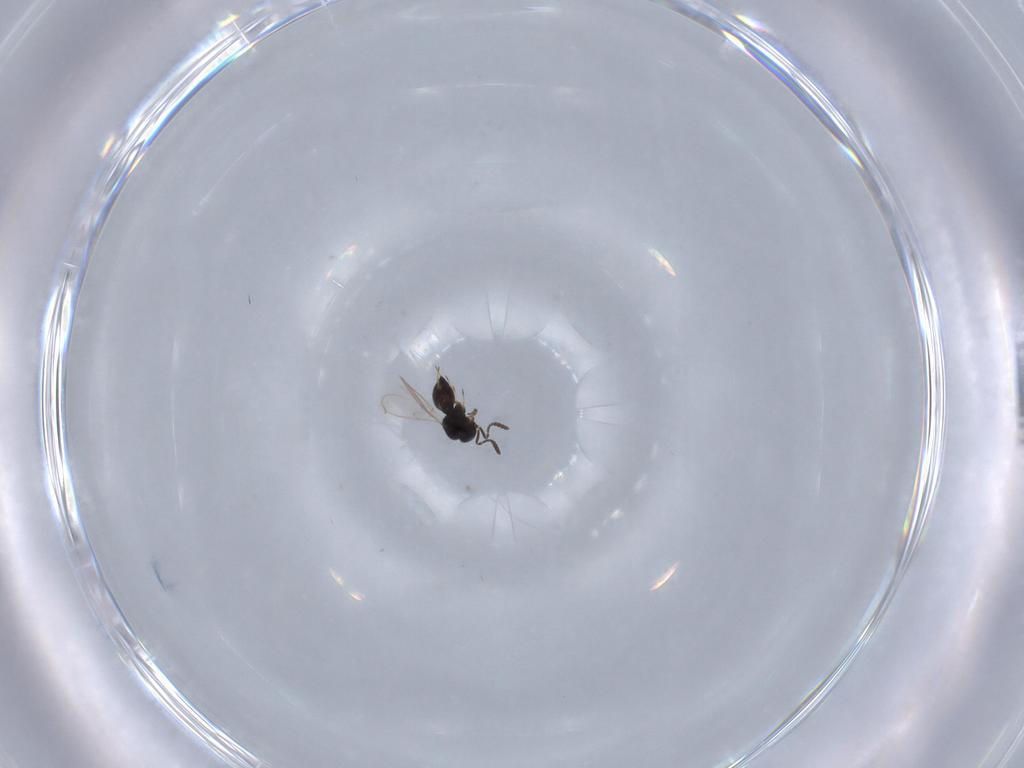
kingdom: Animalia
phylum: Arthropoda
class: Insecta
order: Hymenoptera
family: Scelionidae
